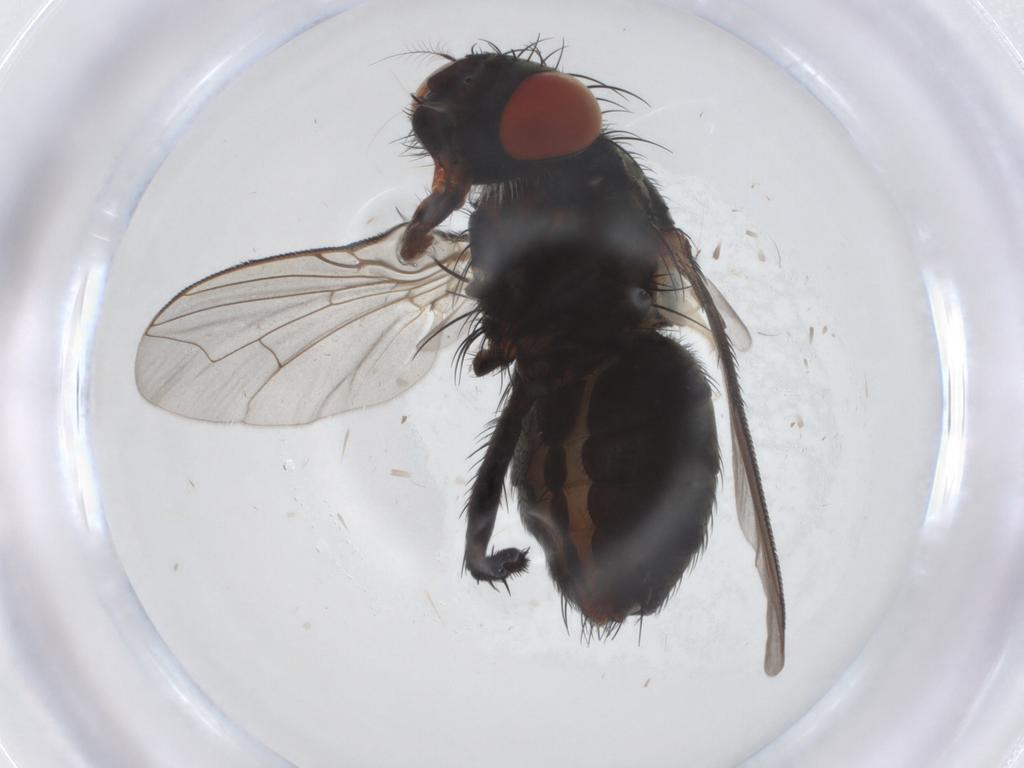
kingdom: Animalia
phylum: Arthropoda
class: Insecta
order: Diptera
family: Sarcophagidae
